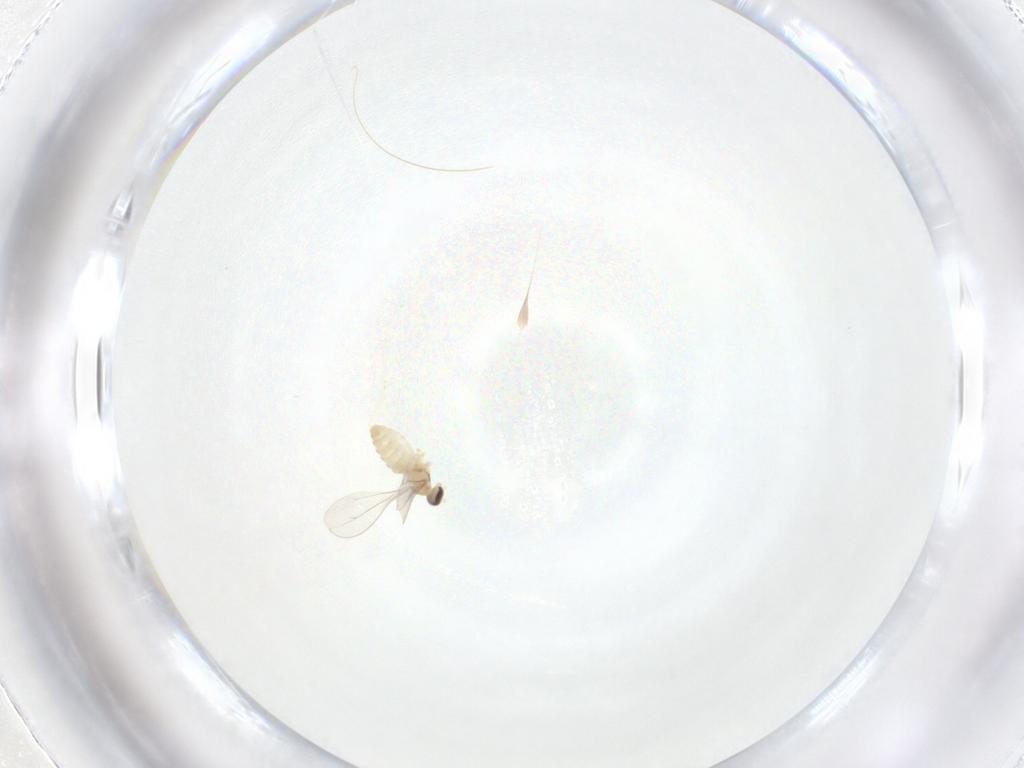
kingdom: Animalia
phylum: Arthropoda
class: Insecta
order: Diptera
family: Cecidomyiidae
